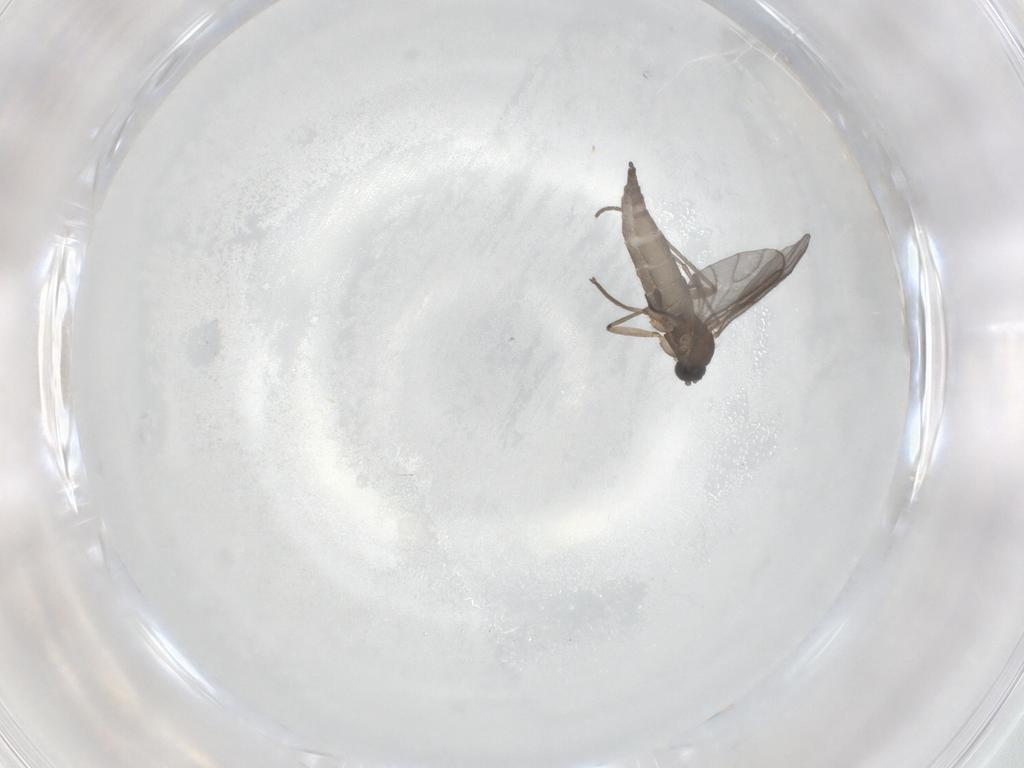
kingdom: Animalia
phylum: Arthropoda
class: Insecta
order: Diptera
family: Sciaridae
